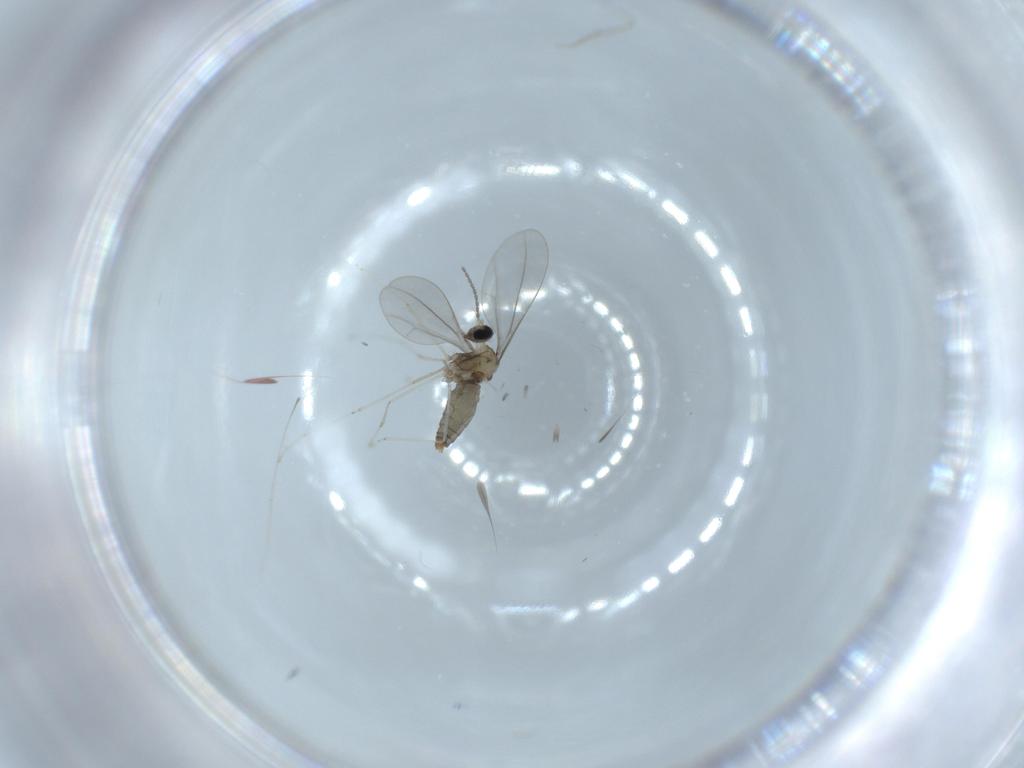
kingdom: Animalia
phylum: Arthropoda
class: Insecta
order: Diptera
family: Cecidomyiidae
